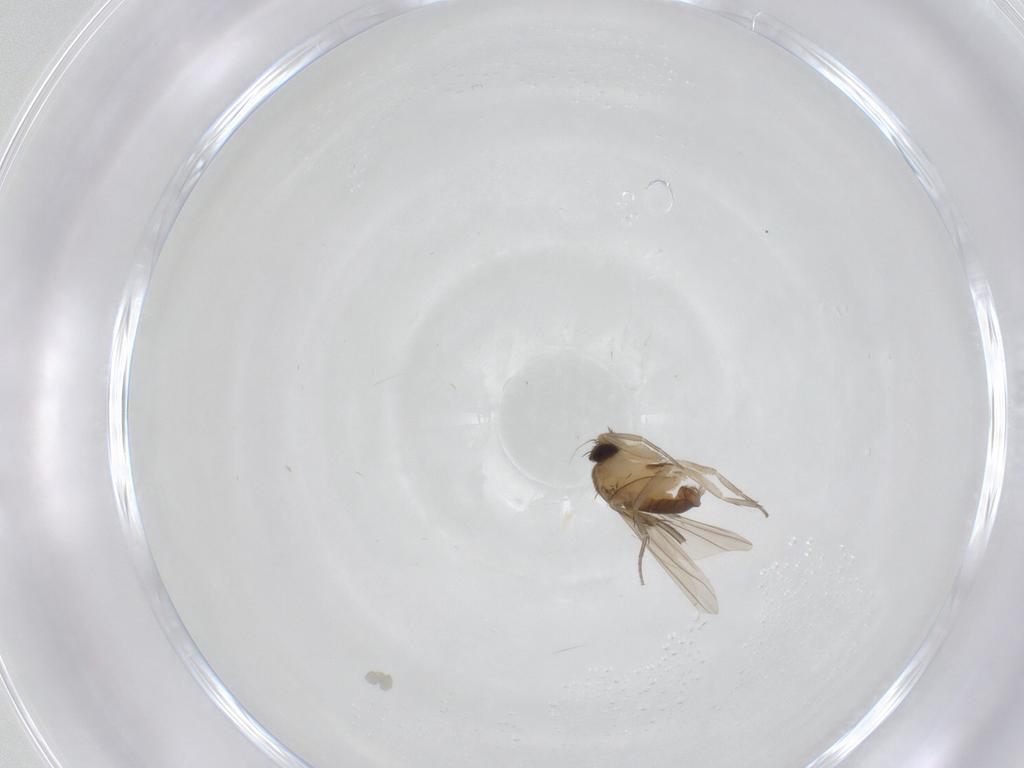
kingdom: Animalia
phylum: Arthropoda
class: Insecta
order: Diptera
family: Phoridae
